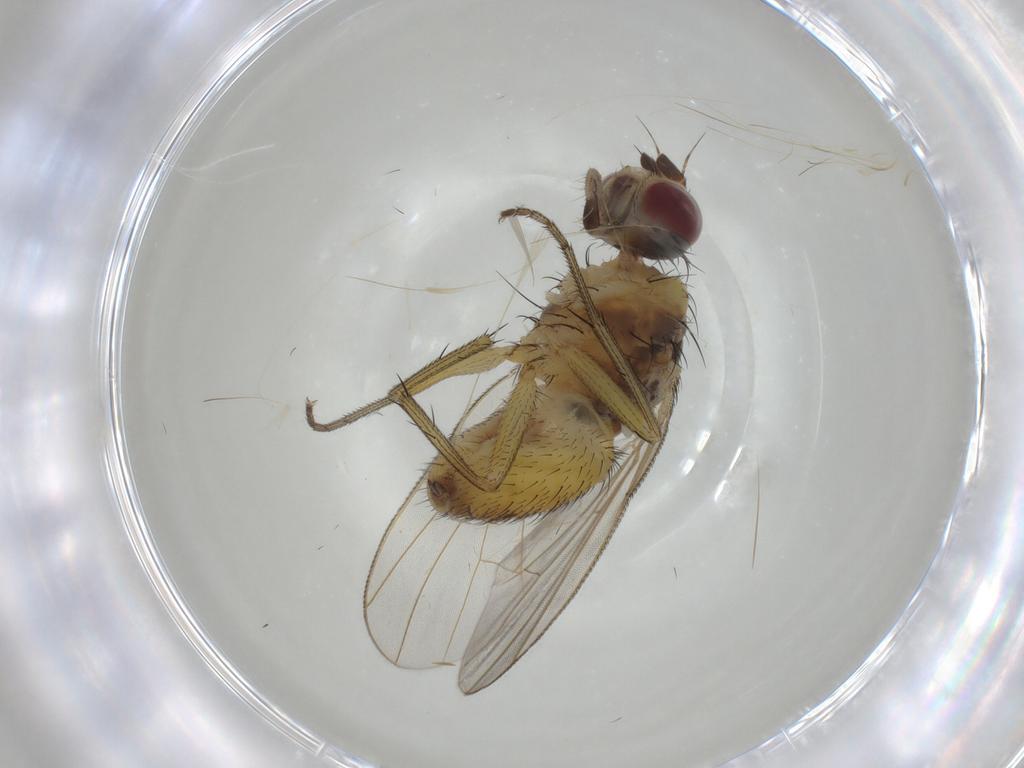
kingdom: Animalia
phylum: Arthropoda
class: Insecta
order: Diptera
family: Muscidae
